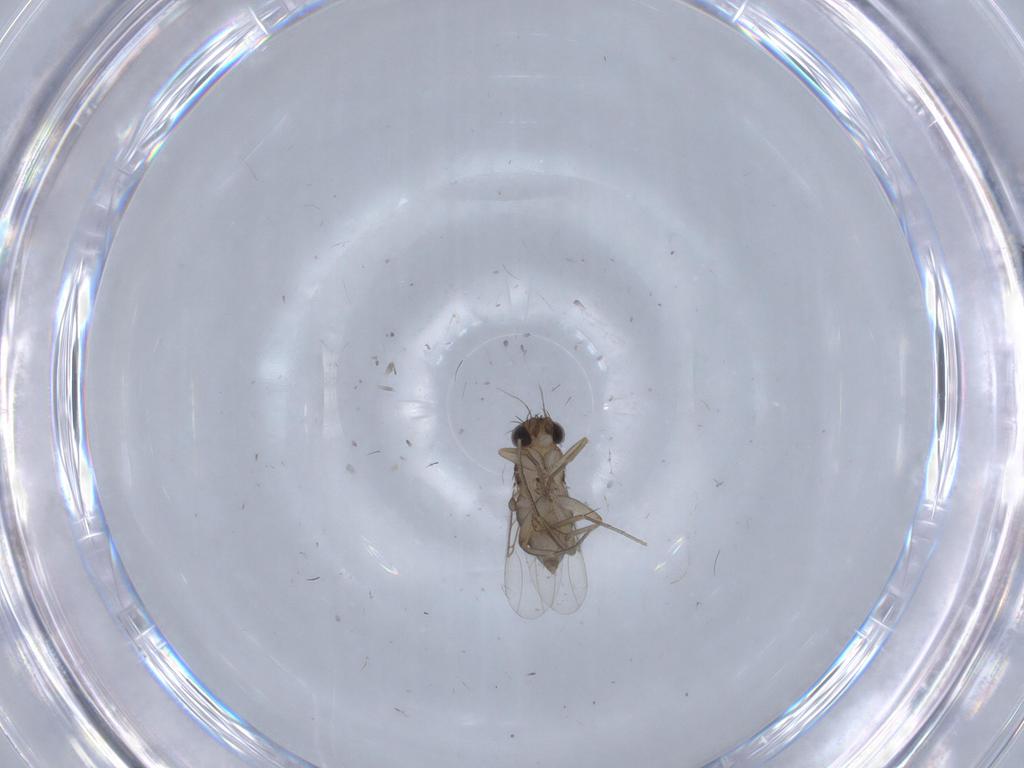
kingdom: Animalia
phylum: Arthropoda
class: Insecta
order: Diptera
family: Phoridae
